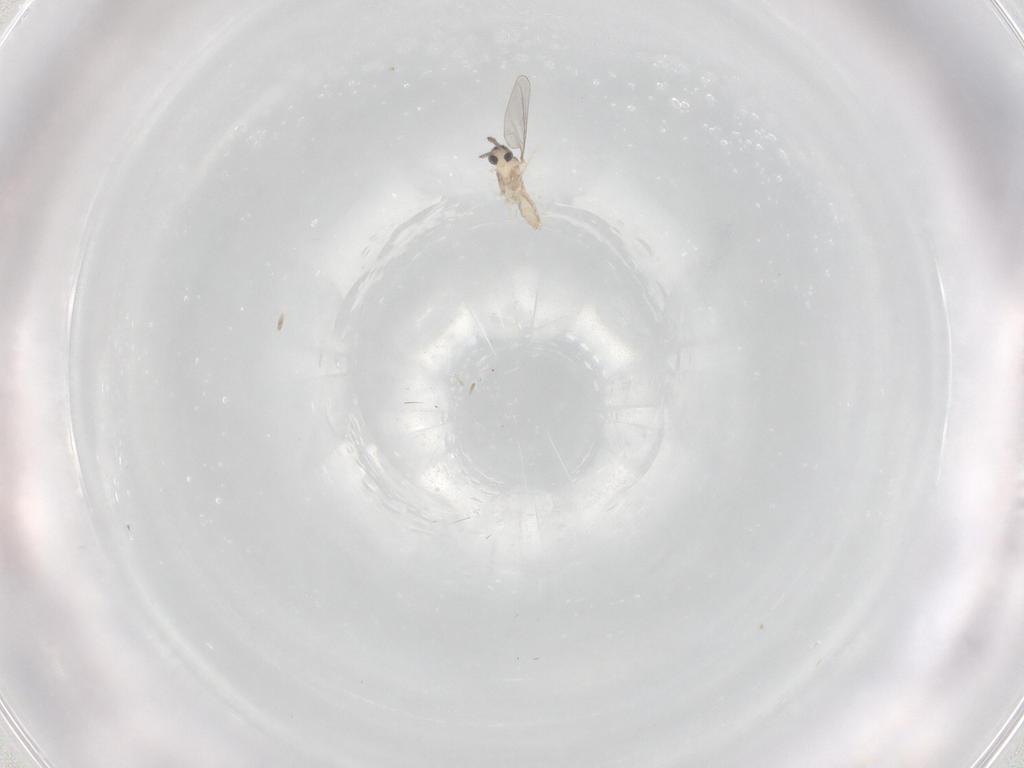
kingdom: Animalia
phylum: Arthropoda
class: Insecta
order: Diptera
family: Cecidomyiidae
